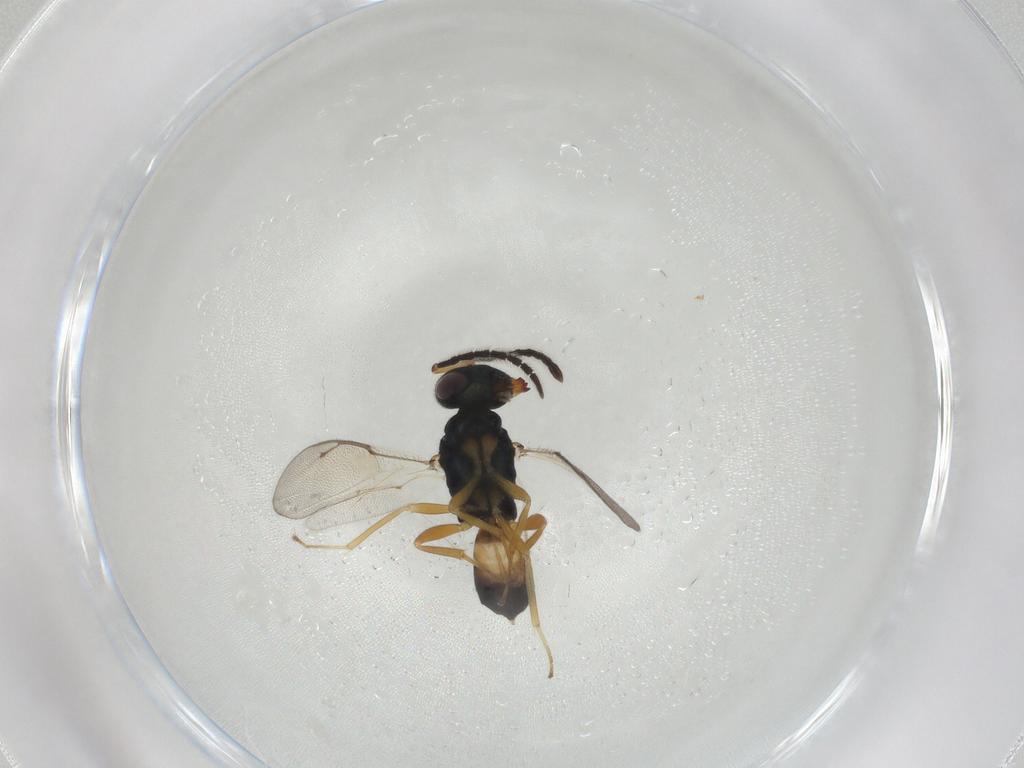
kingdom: Animalia
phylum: Arthropoda
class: Insecta
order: Hymenoptera
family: Pteromalidae
